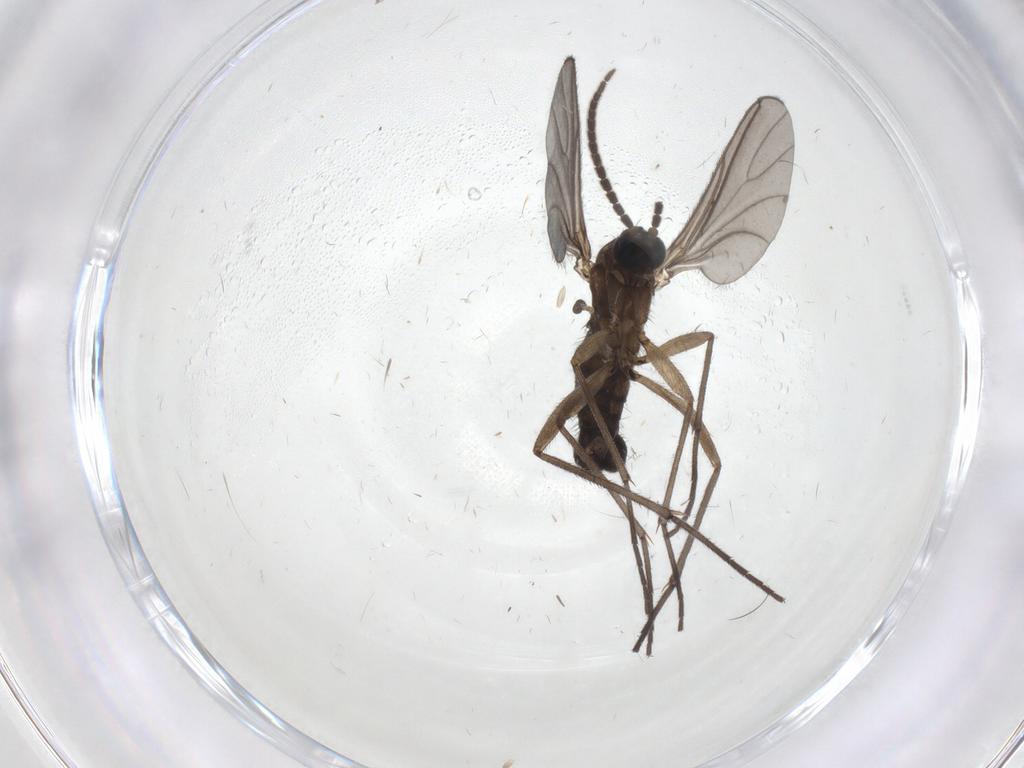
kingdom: Animalia
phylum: Arthropoda
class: Insecta
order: Diptera
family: Sciaridae
